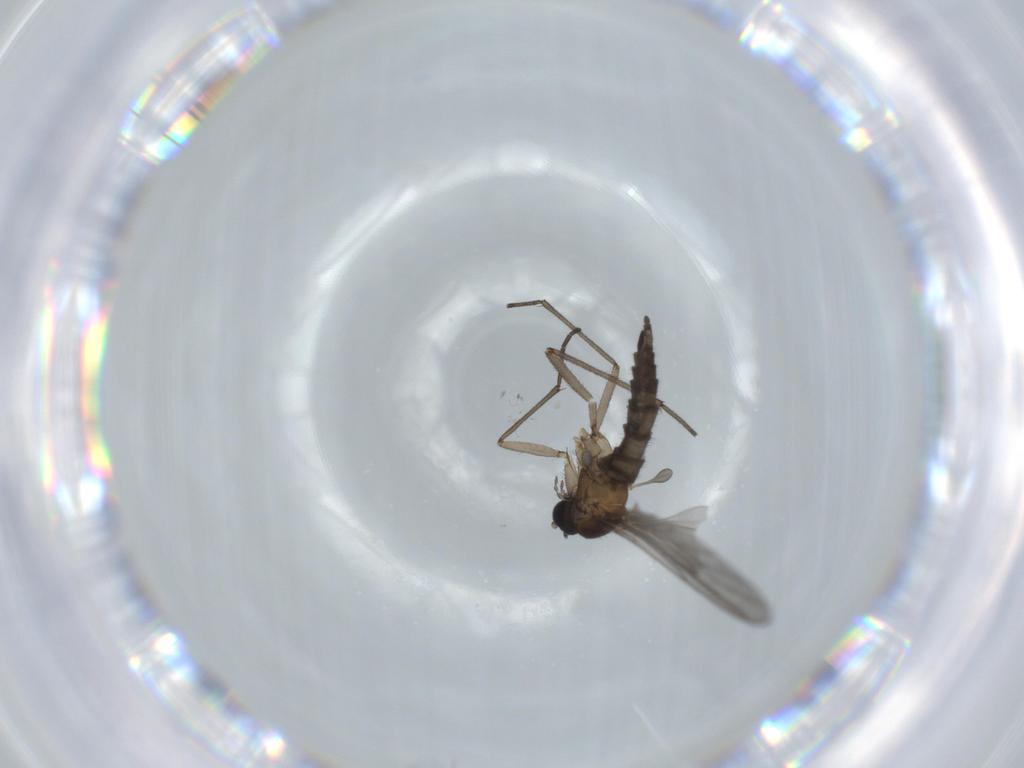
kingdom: Animalia
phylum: Arthropoda
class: Insecta
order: Diptera
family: Sciaridae
